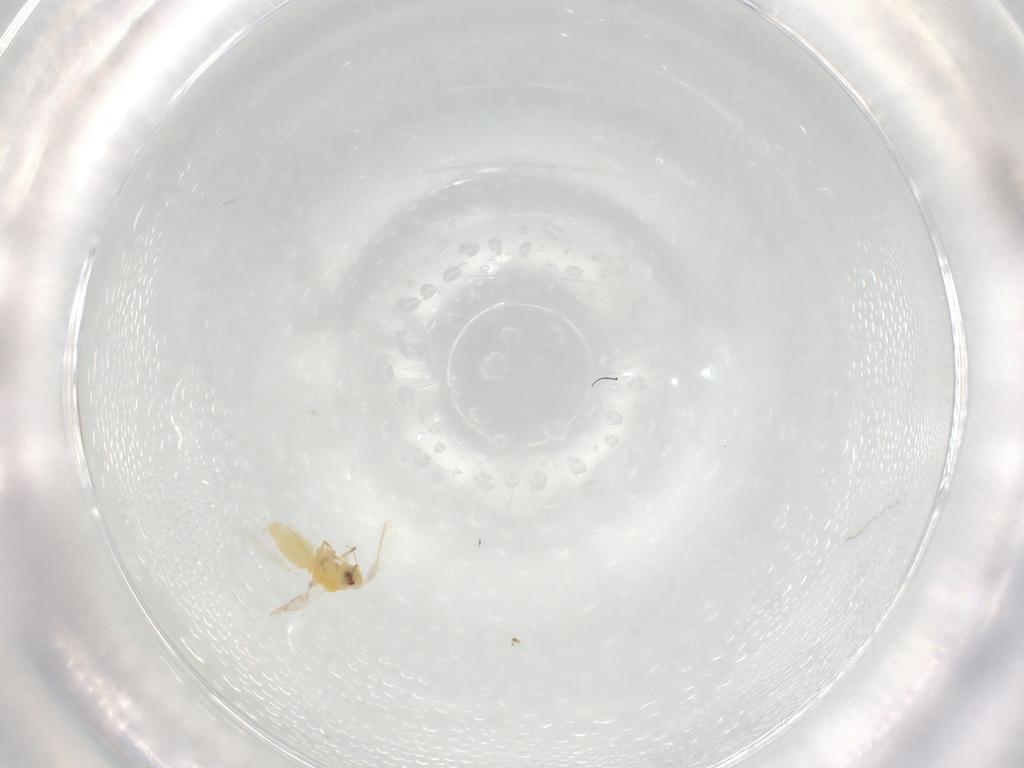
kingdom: Animalia
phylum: Arthropoda
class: Insecta
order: Hemiptera
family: Aleyrodidae
